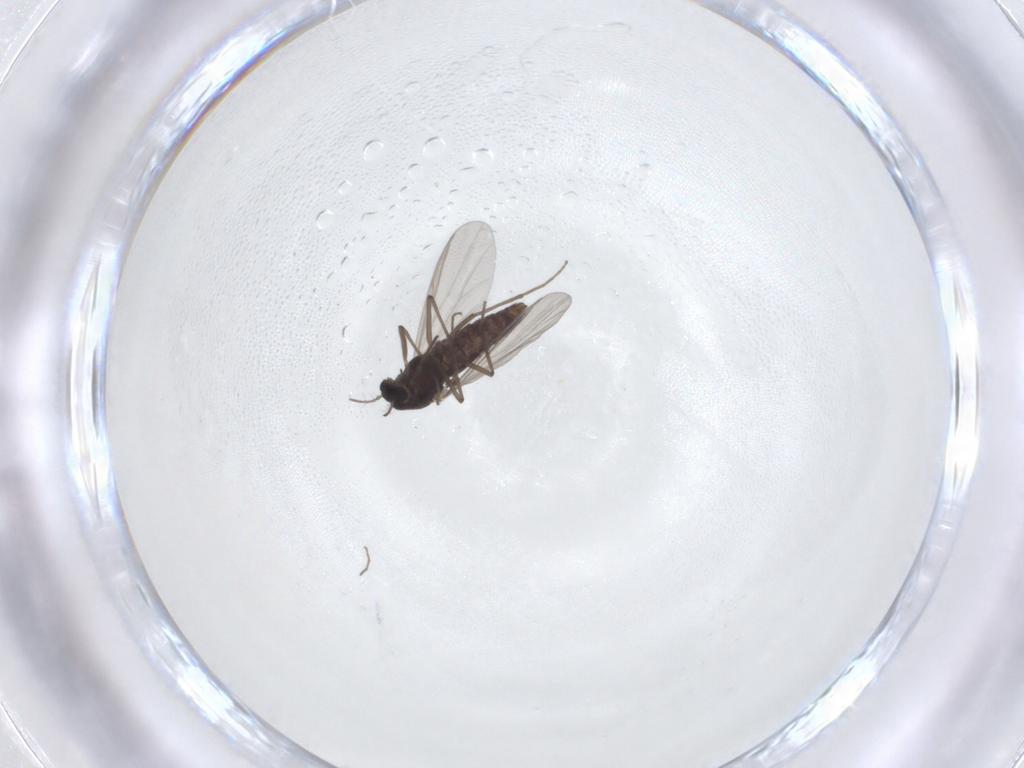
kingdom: Animalia
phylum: Arthropoda
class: Insecta
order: Diptera
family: Chironomidae
